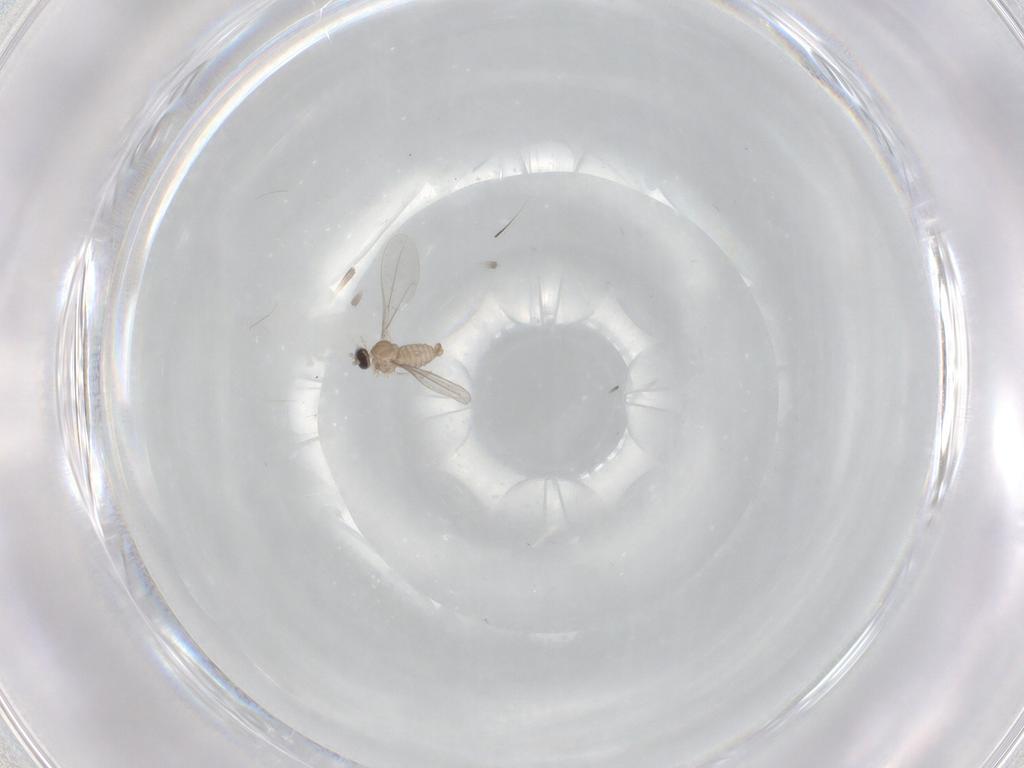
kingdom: Animalia
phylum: Arthropoda
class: Insecta
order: Diptera
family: Cecidomyiidae
